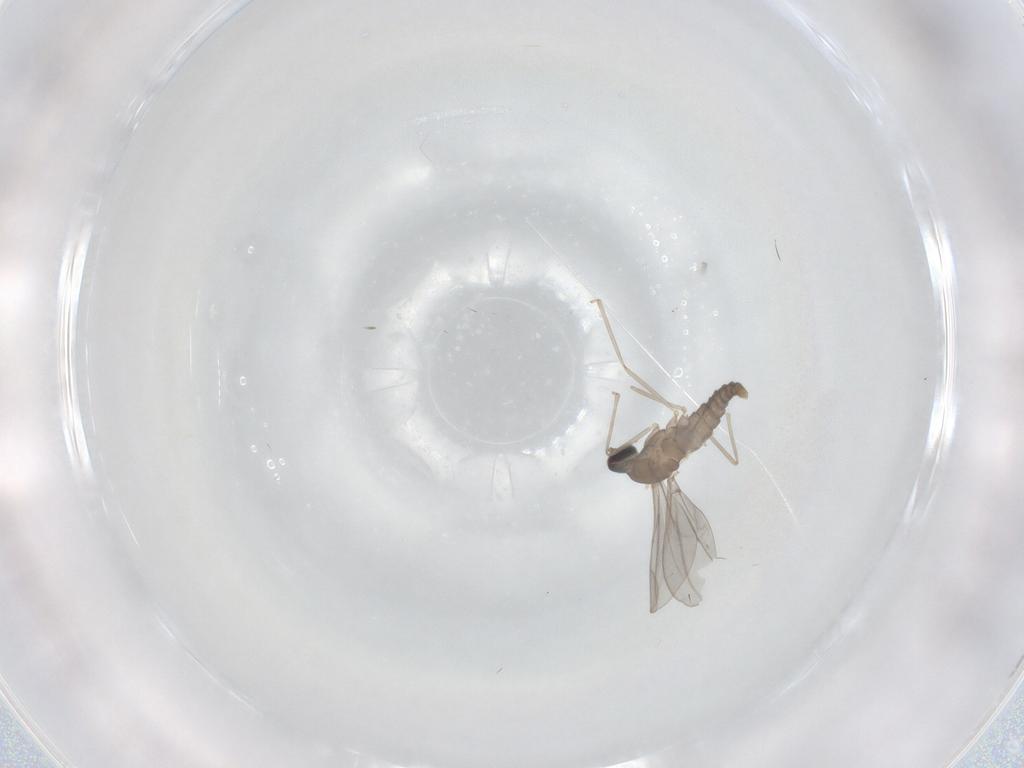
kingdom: Animalia
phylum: Arthropoda
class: Insecta
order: Diptera
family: Cecidomyiidae
